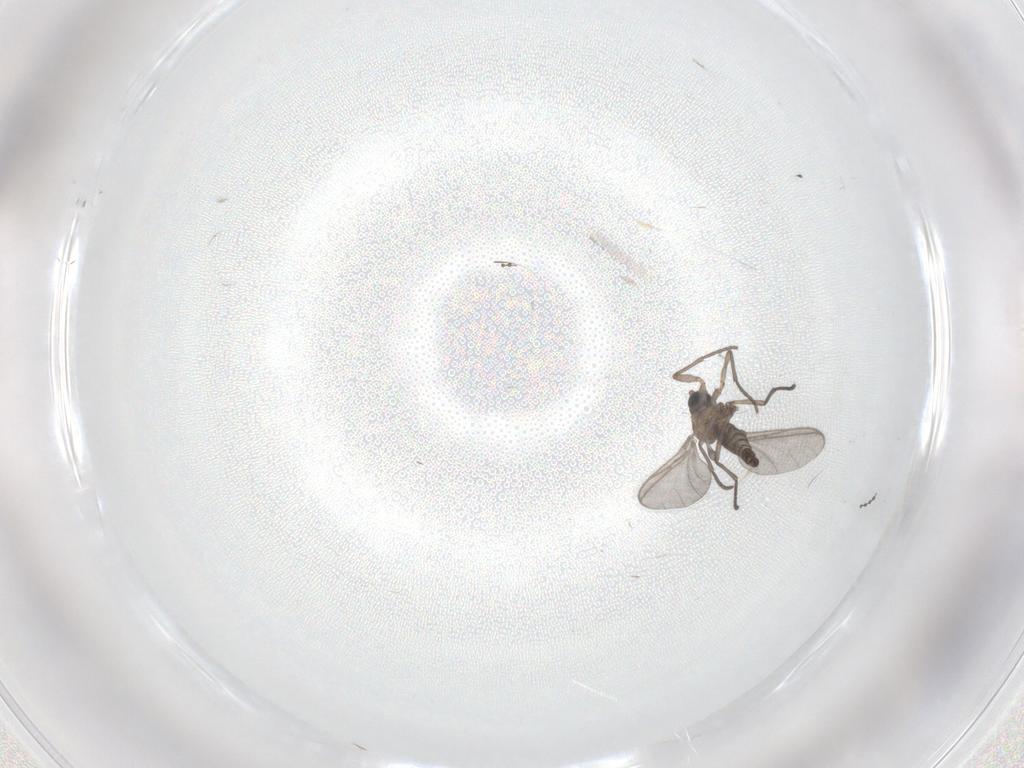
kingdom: Animalia
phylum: Arthropoda
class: Insecta
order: Diptera
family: Sciaridae
